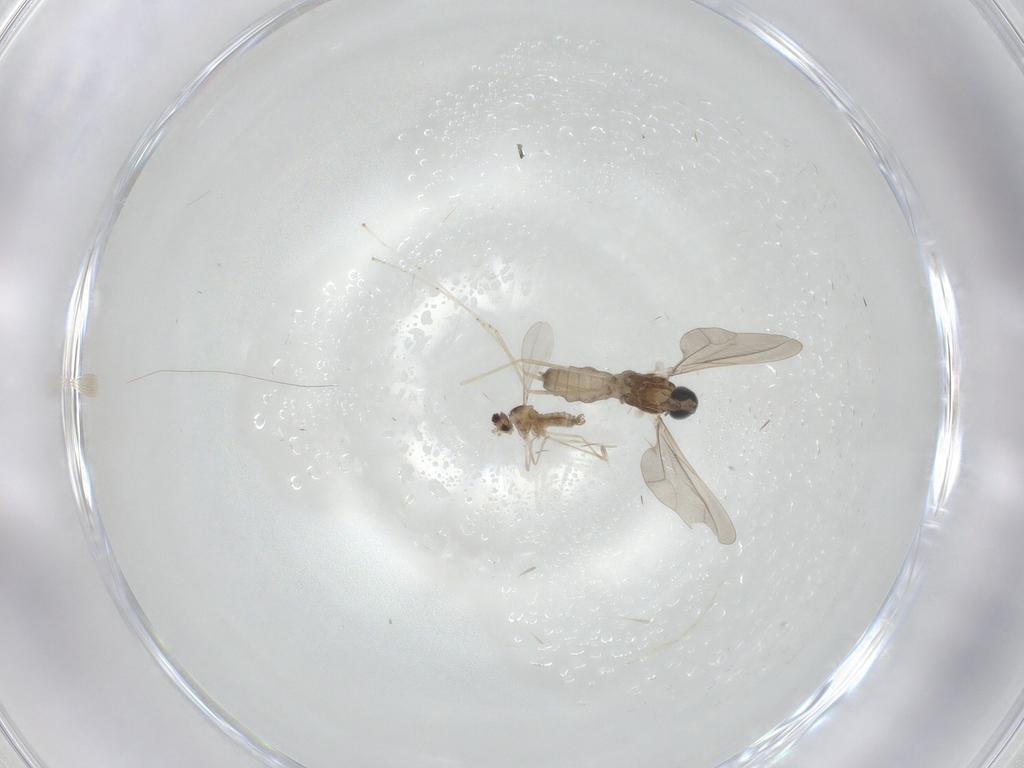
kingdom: Animalia
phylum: Arthropoda
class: Insecta
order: Diptera
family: Cecidomyiidae
